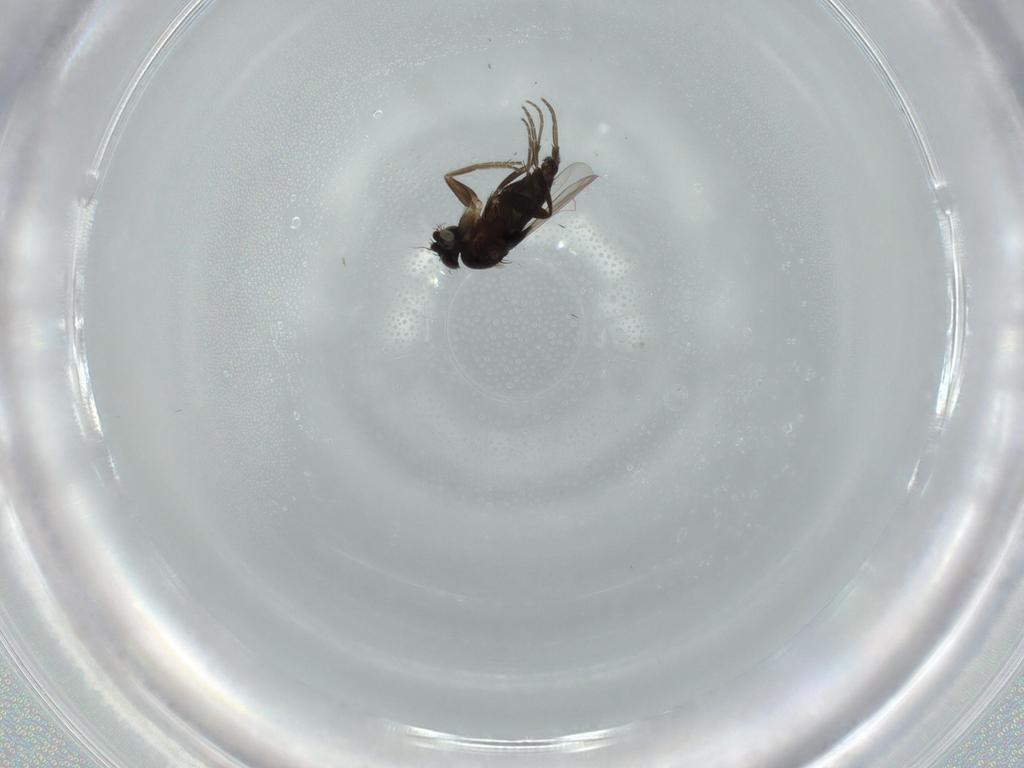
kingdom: Animalia
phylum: Arthropoda
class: Insecta
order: Diptera
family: Phoridae
